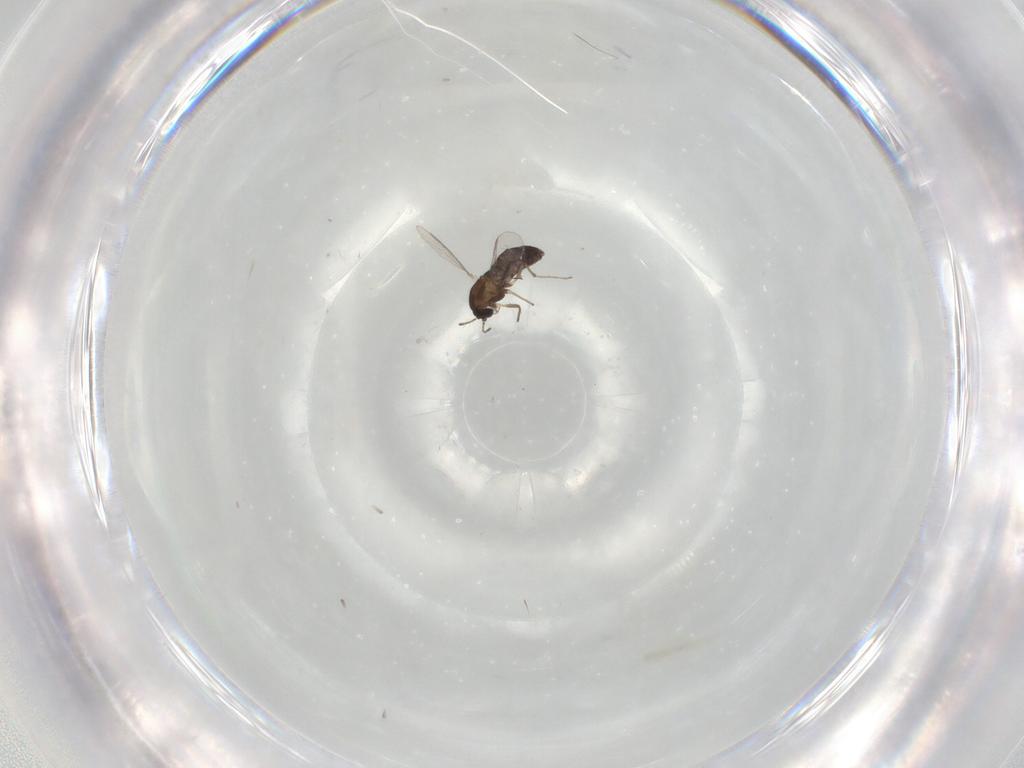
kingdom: Animalia
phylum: Arthropoda
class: Insecta
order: Diptera
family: Chironomidae
